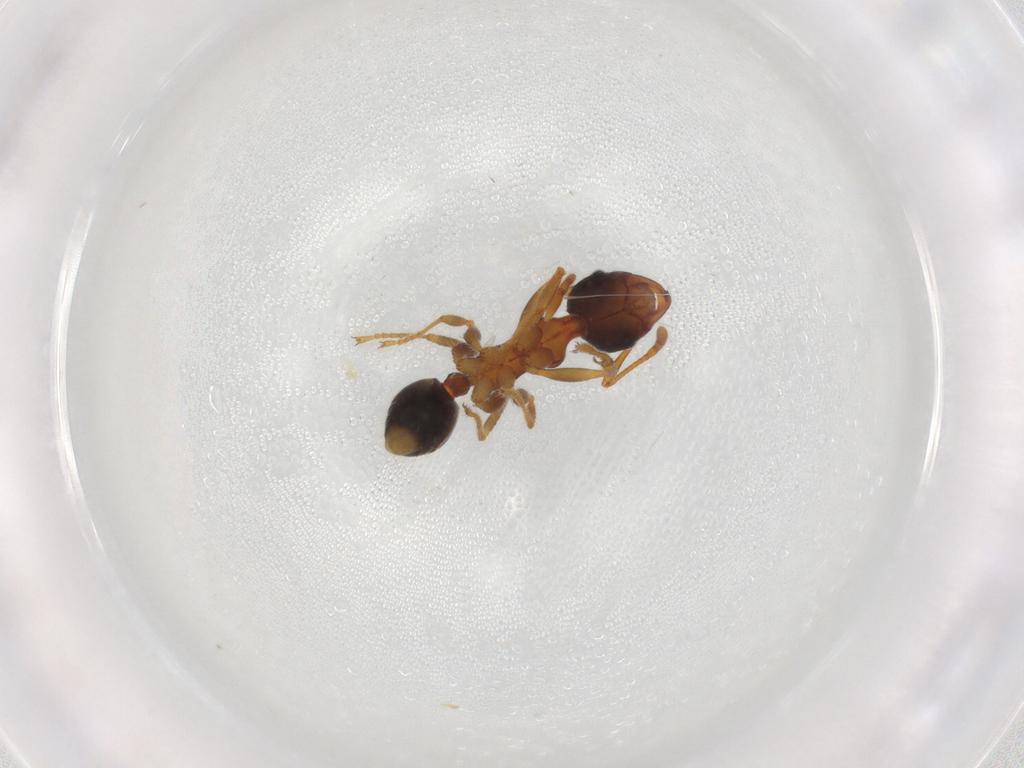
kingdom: Animalia
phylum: Arthropoda
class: Insecta
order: Hymenoptera
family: Formicidae
